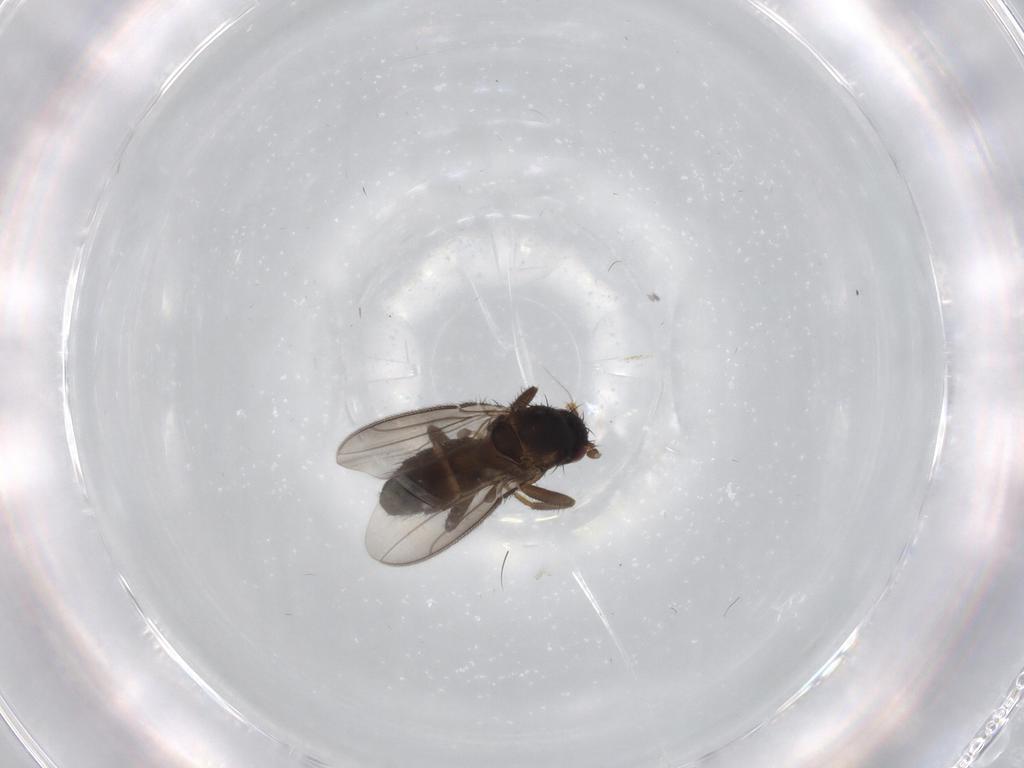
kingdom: Animalia
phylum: Arthropoda
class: Insecta
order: Diptera
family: Sphaeroceridae
